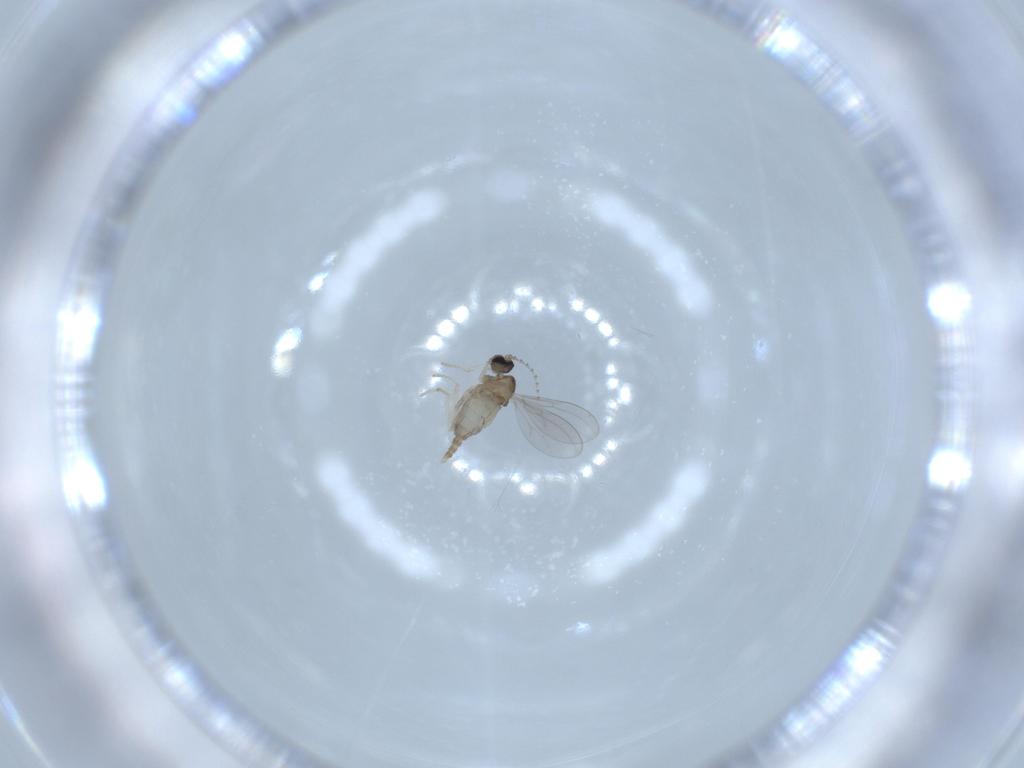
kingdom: Animalia
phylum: Arthropoda
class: Insecta
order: Diptera
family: Cecidomyiidae
